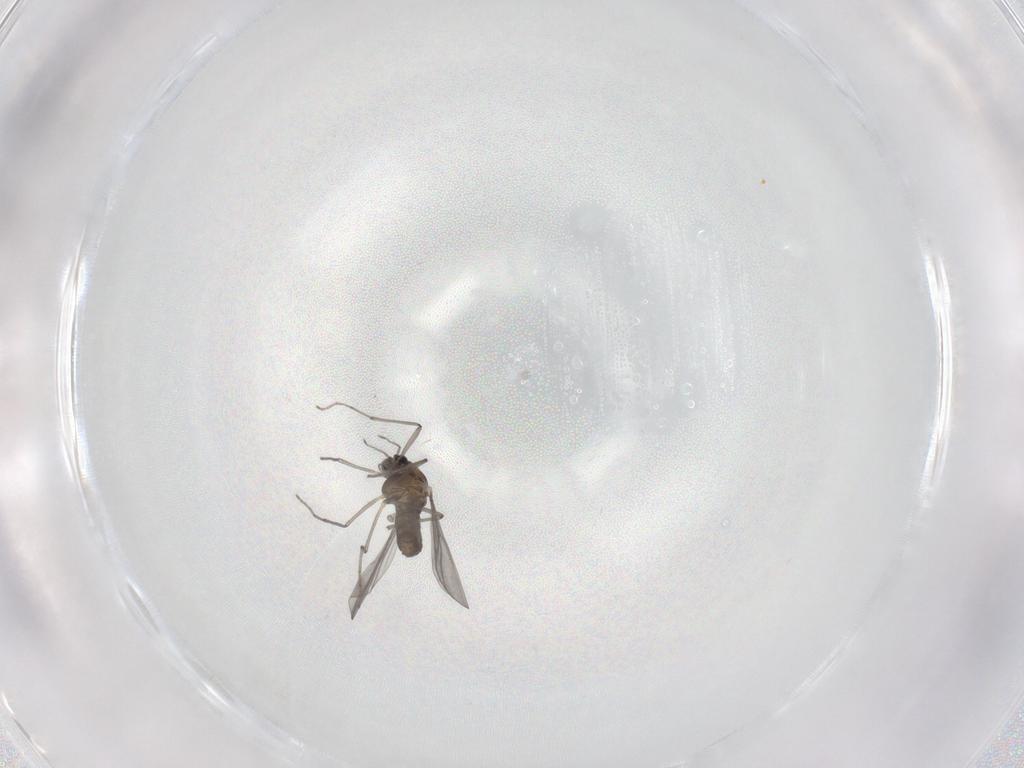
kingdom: Animalia
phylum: Arthropoda
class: Insecta
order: Diptera
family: Chironomidae
